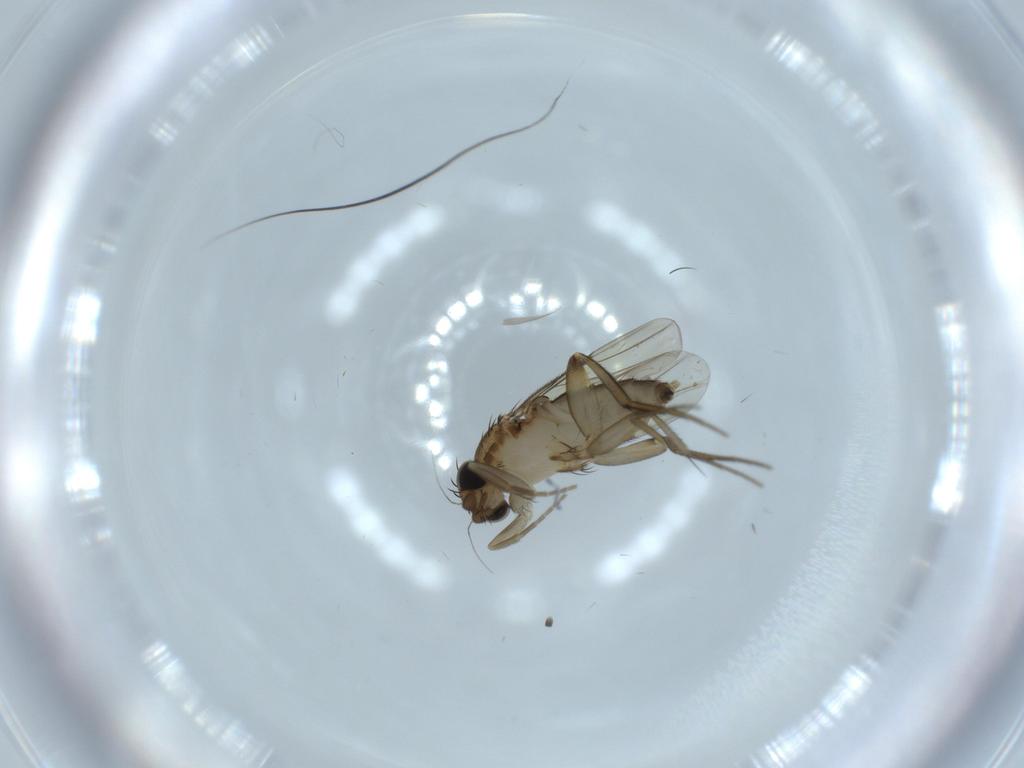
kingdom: Animalia
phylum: Arthropoda
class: Insecta
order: Diptera
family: Phoridae
